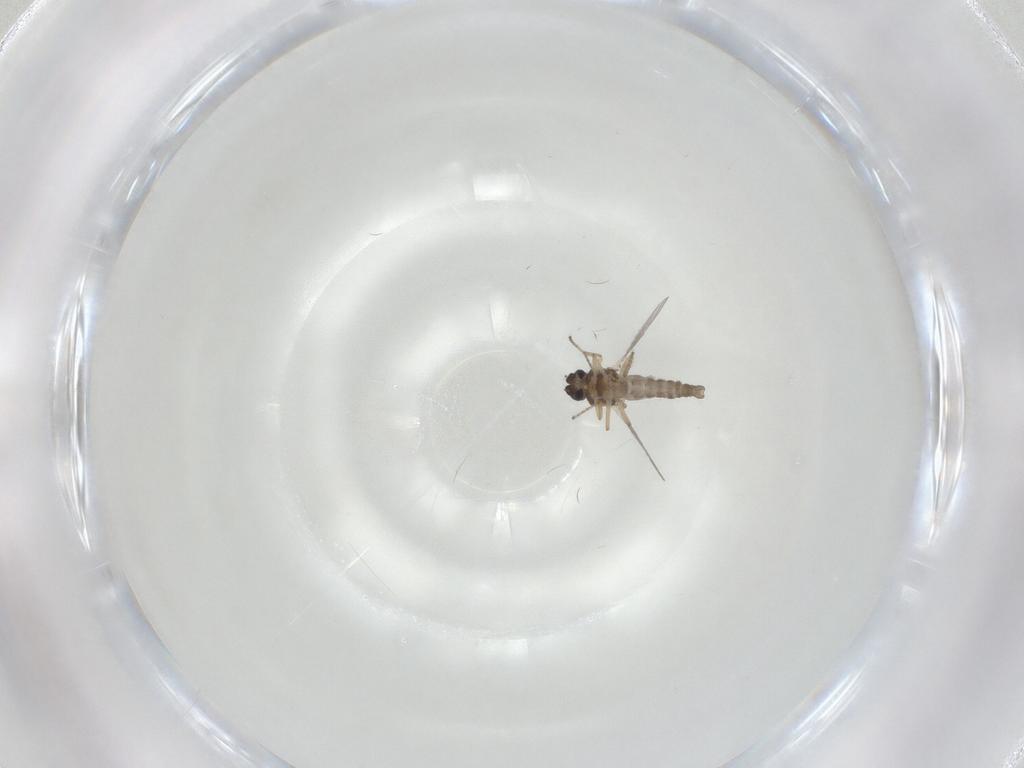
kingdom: Animalia
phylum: Arthropoda
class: Insecta
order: Diptera
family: Ceratopogonidae
